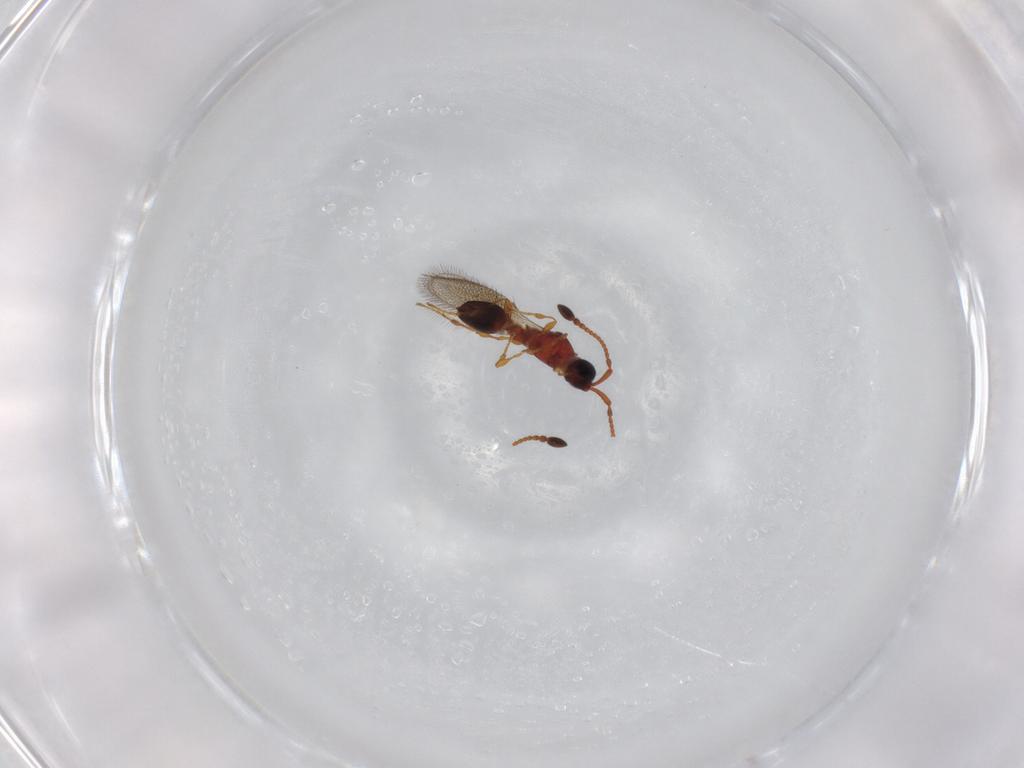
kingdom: Animalia
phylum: Arthropoda
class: Insecta
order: Hymenoptera
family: Diapriidae
